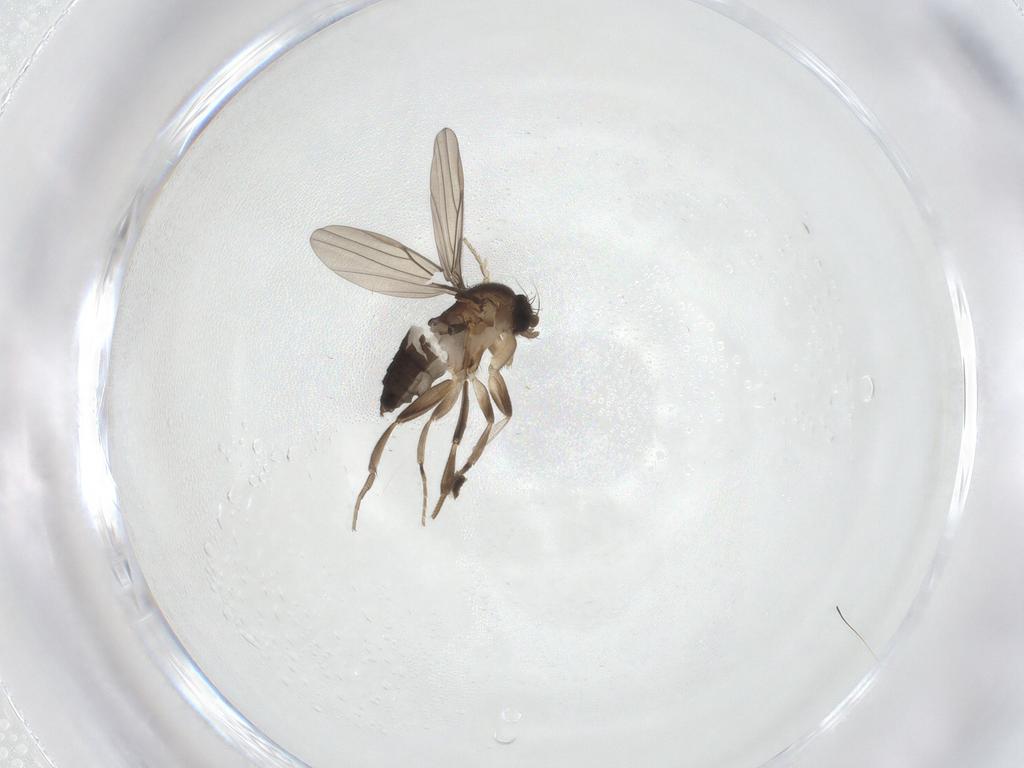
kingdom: Animalia
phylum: Arthropoda
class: Insecta
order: Diptera
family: Phoridae
